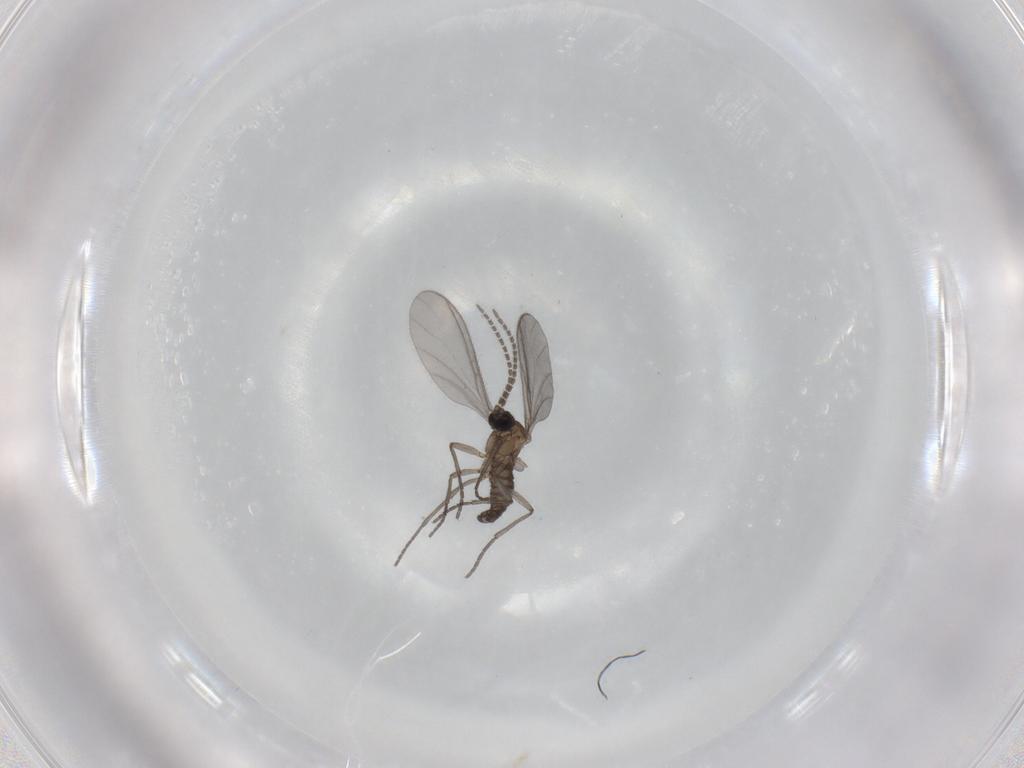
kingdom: Animalia
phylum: Arthropoda
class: Insecta
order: Diptera
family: Sciaridae
